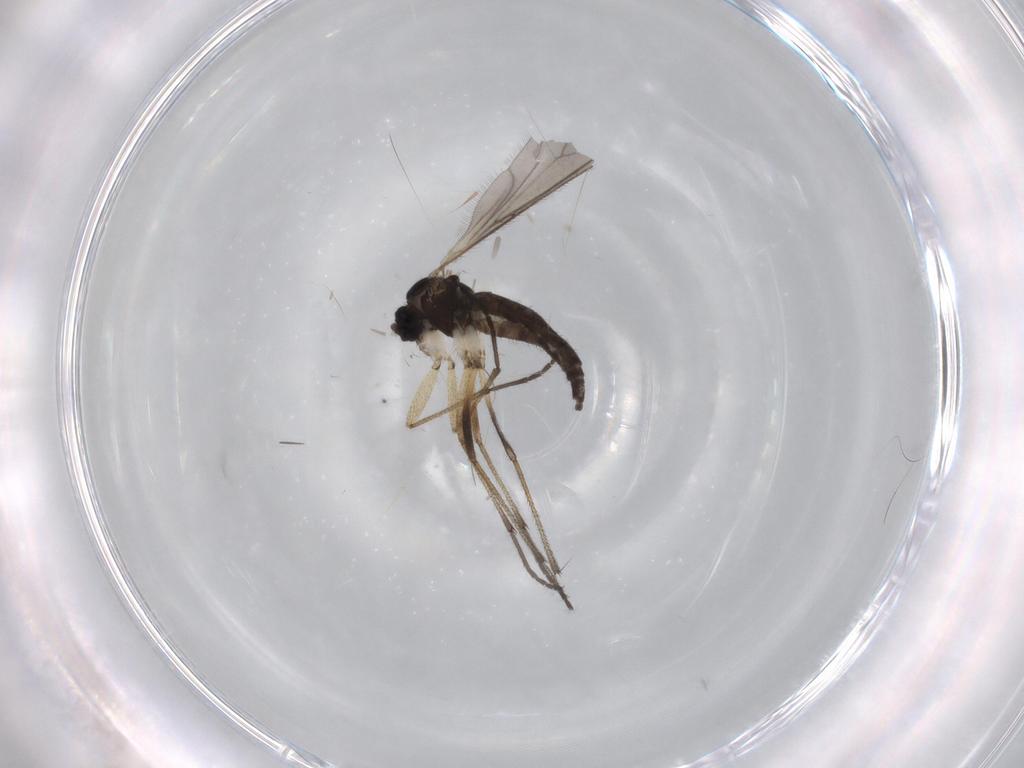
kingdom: Animalia
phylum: Arthropoda
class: Insecta
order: Diptera
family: Sciaridae
